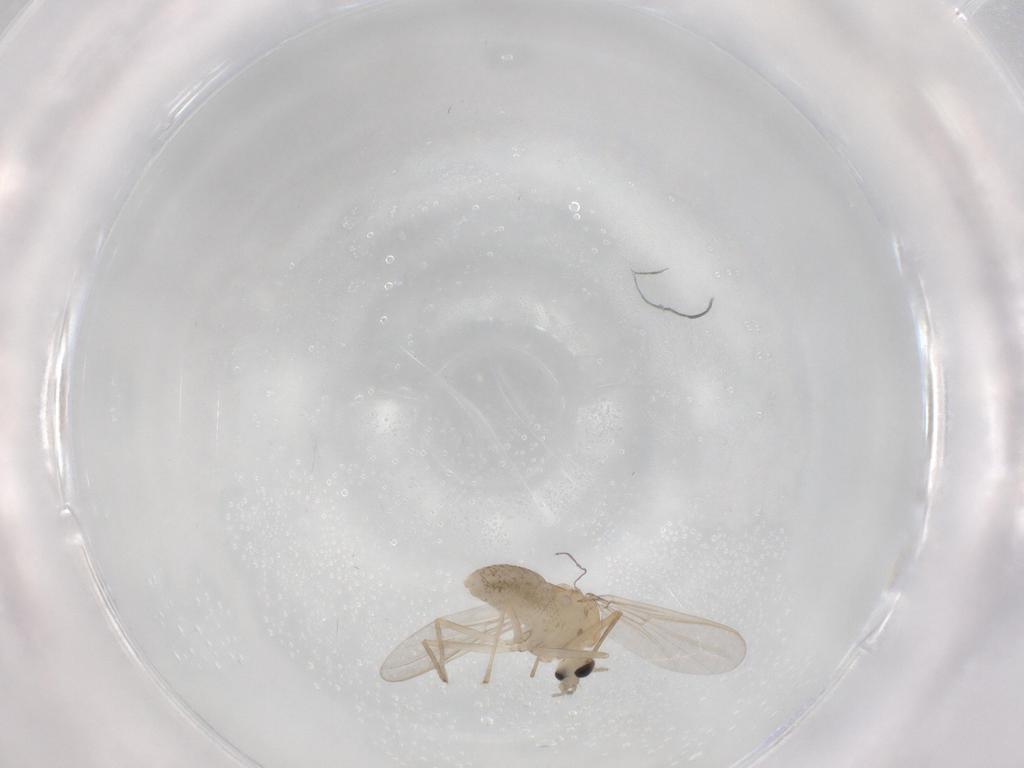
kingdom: Animalia
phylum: Arthropoda
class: Insecta
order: Diptera
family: Chironomidae
